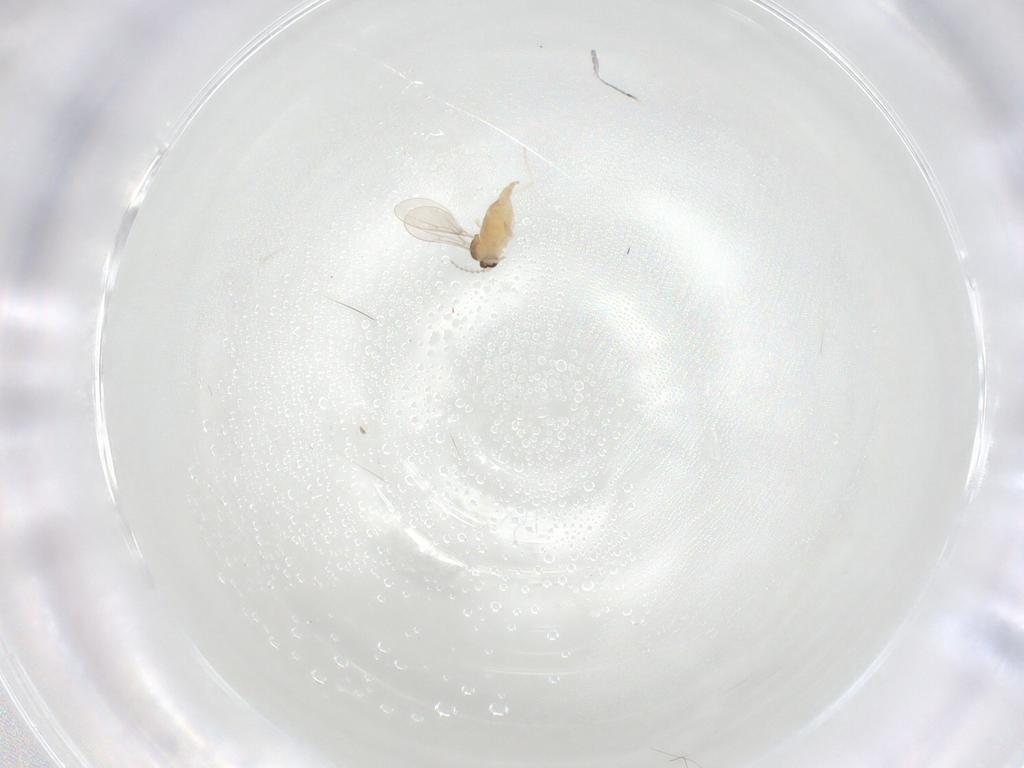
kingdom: Animalia
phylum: Arthropoda
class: Insecta
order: Diptera
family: Cecidomyiidae
